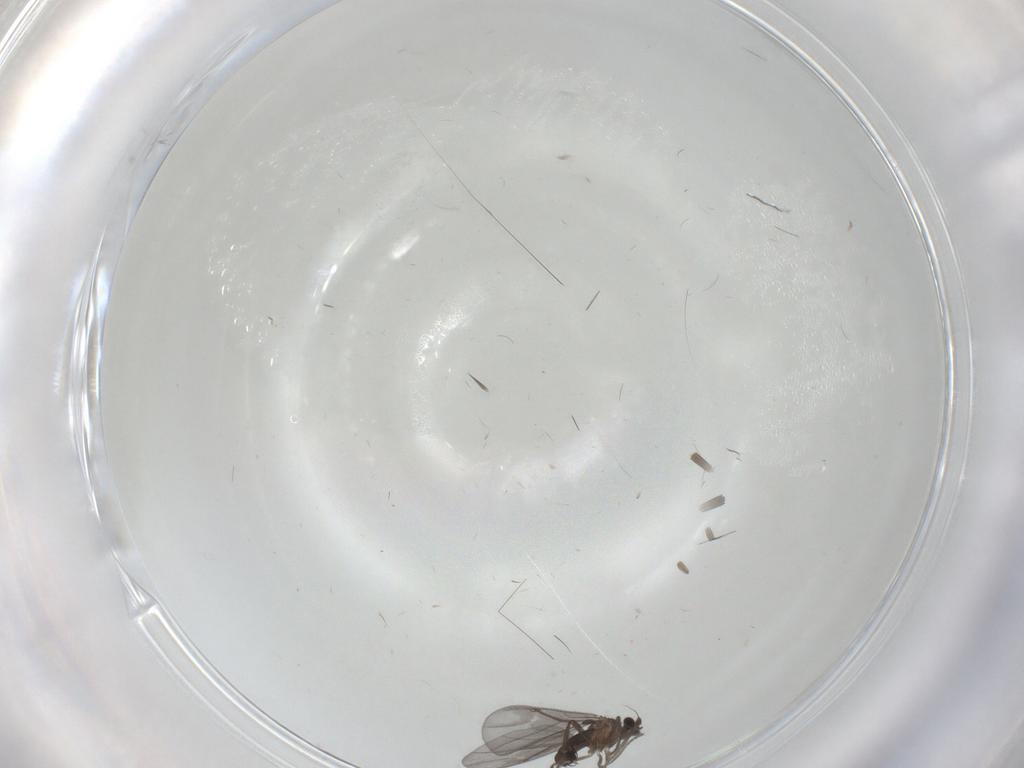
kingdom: Animalia
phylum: Arthropoda
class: Insecta
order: Diptera
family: Phoridae
